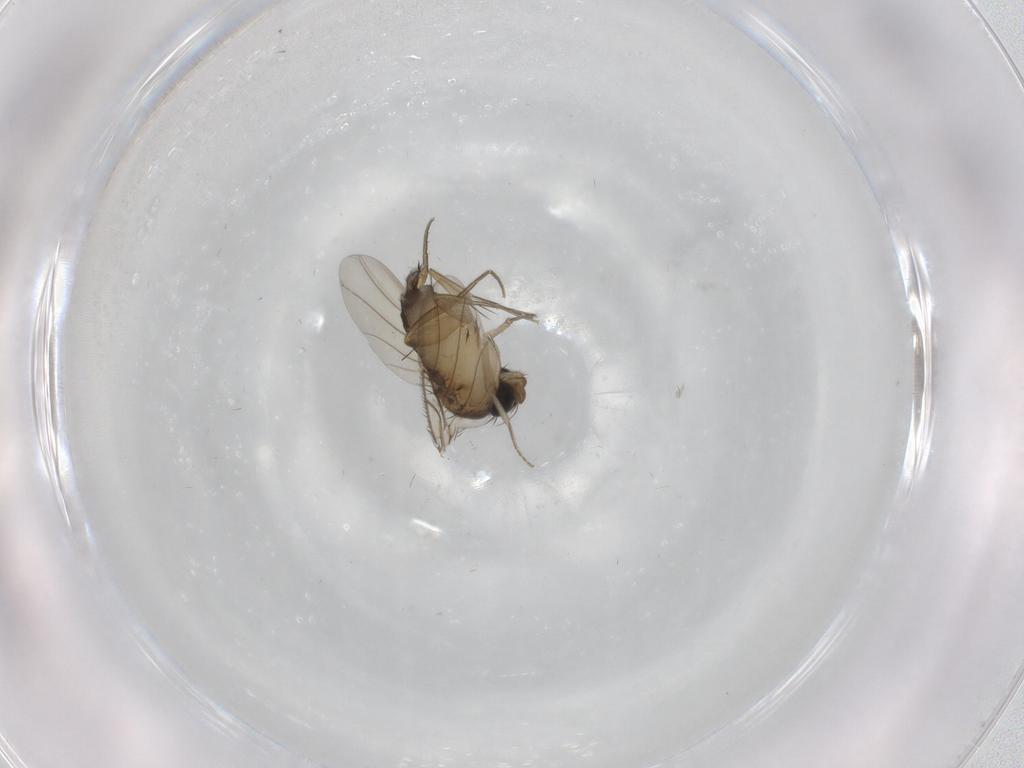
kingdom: Animalia
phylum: Arthropoda
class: Insecta
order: Diptera
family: Phoridae
